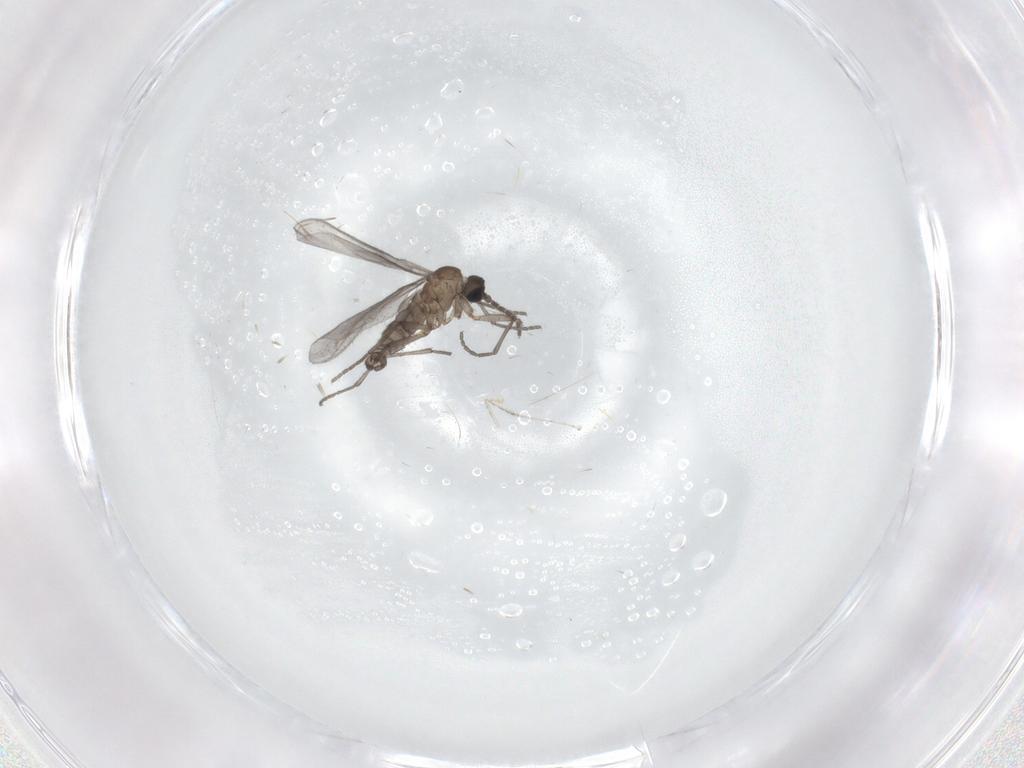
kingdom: Animalia
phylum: Arthropoda
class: Insecta
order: Diptera
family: Sciaridae
